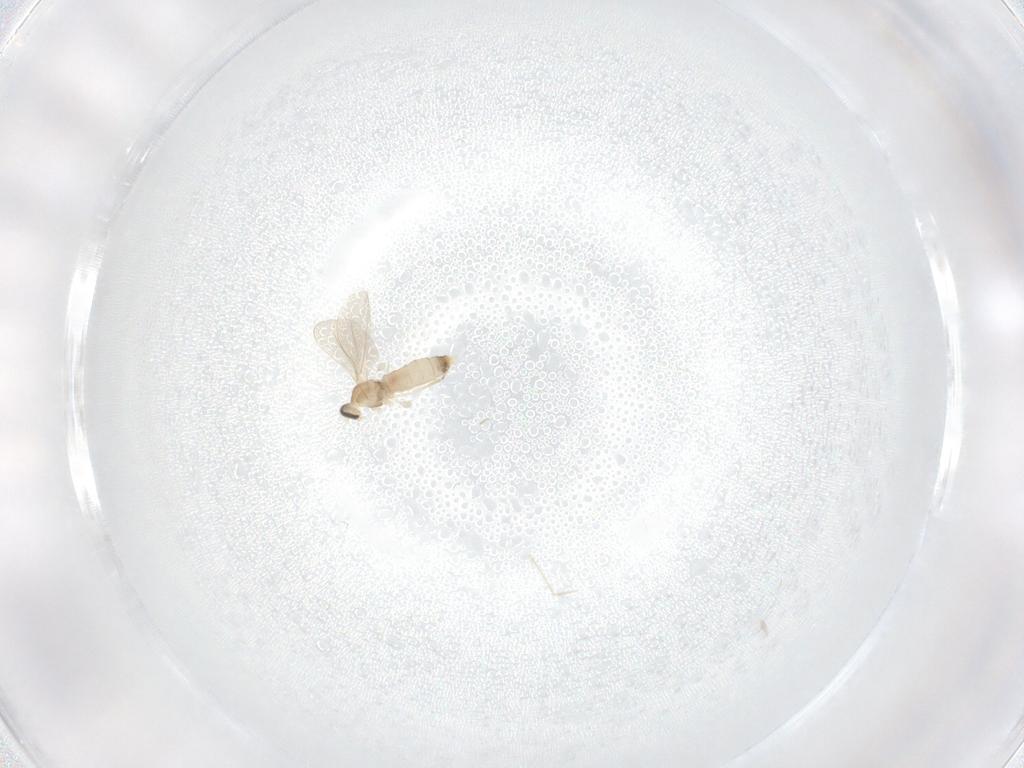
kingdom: Animalia
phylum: Arthropoda
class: Insecta
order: Diptera
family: Cecidomyiidae
